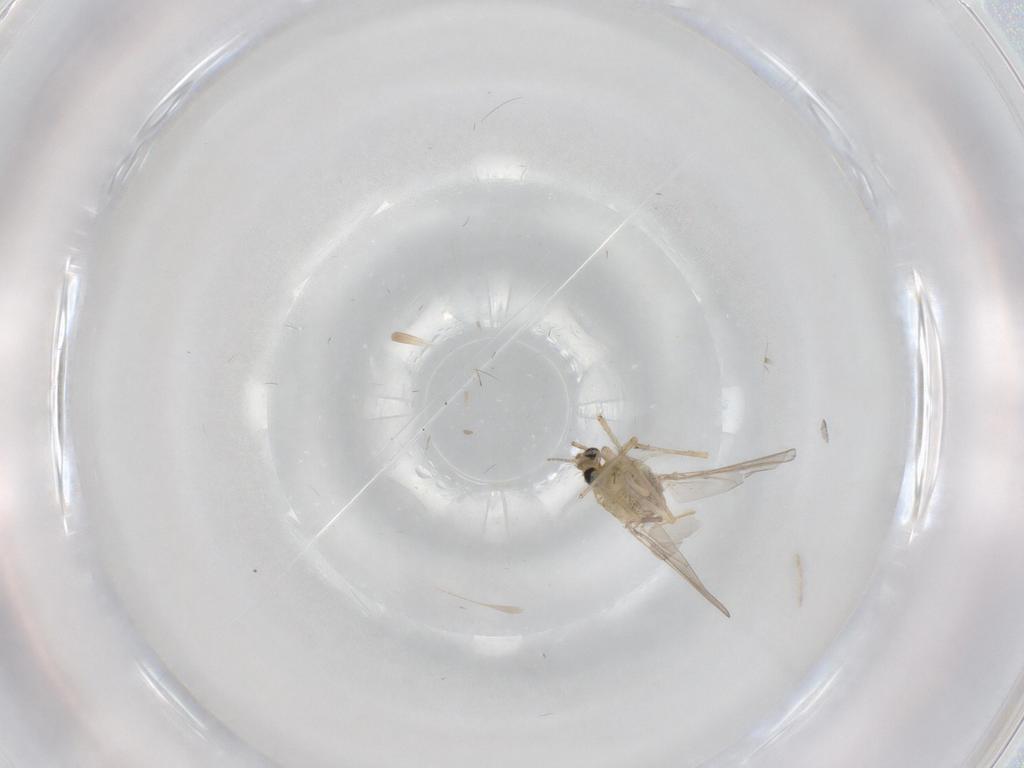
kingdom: Animalia
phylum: Arthropoda
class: Insecta
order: Diptera
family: Chironomidae
